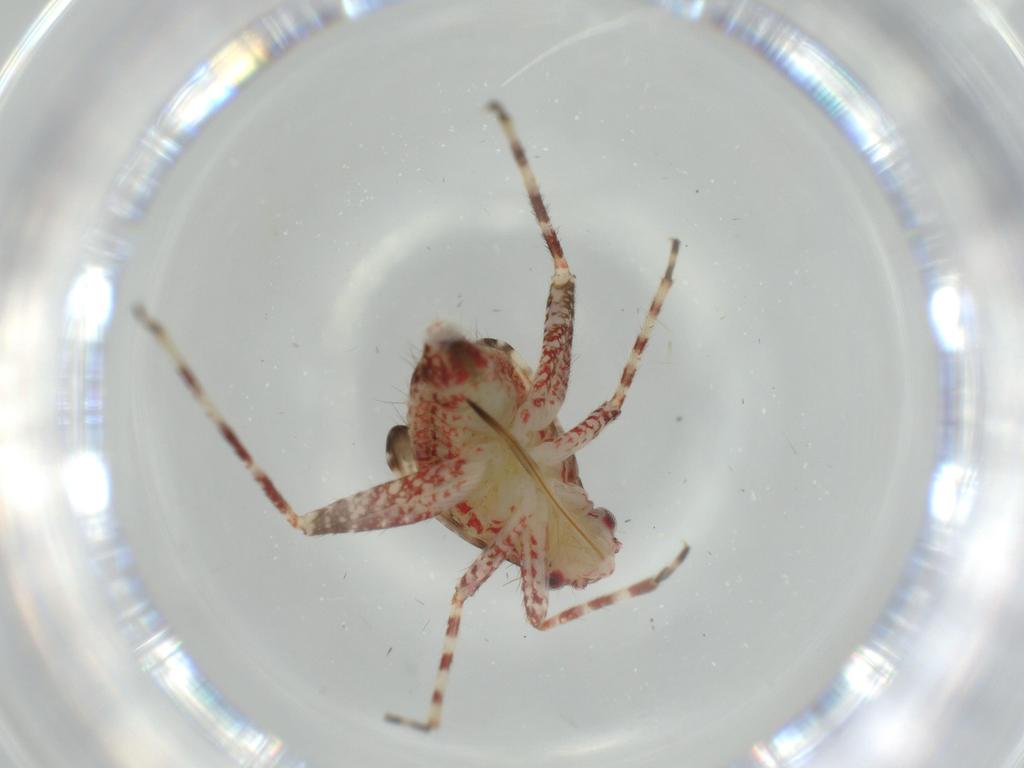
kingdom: Animalia
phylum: Arthropoda
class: Insecta
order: Hemiptera
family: Miridae
